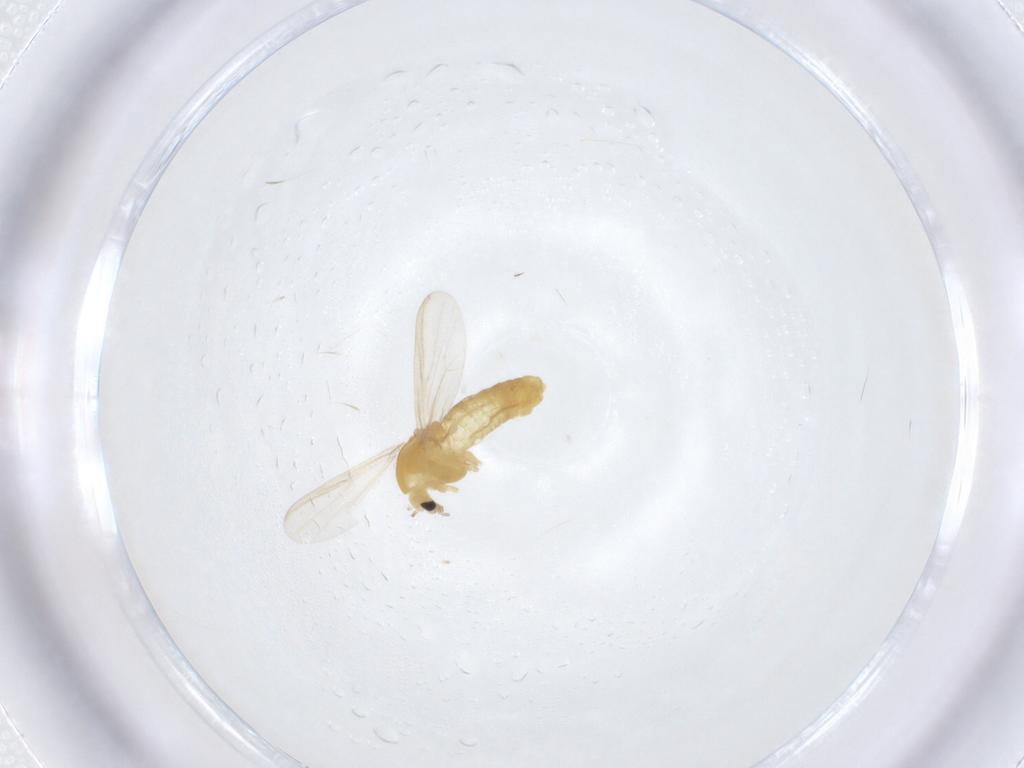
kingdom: Animalia
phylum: Arthropoda
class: Insecta
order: Diptera
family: Chironomidae
